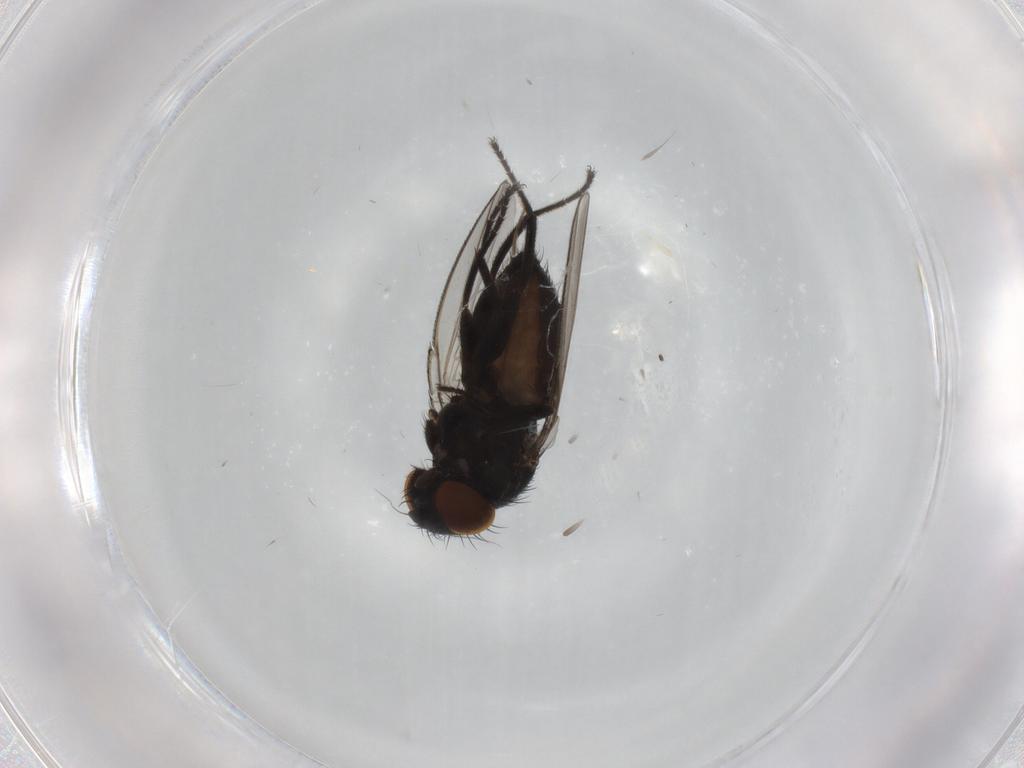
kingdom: Animalia
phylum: Arthropoda
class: Insecta
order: Diptera
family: Milichiidae
